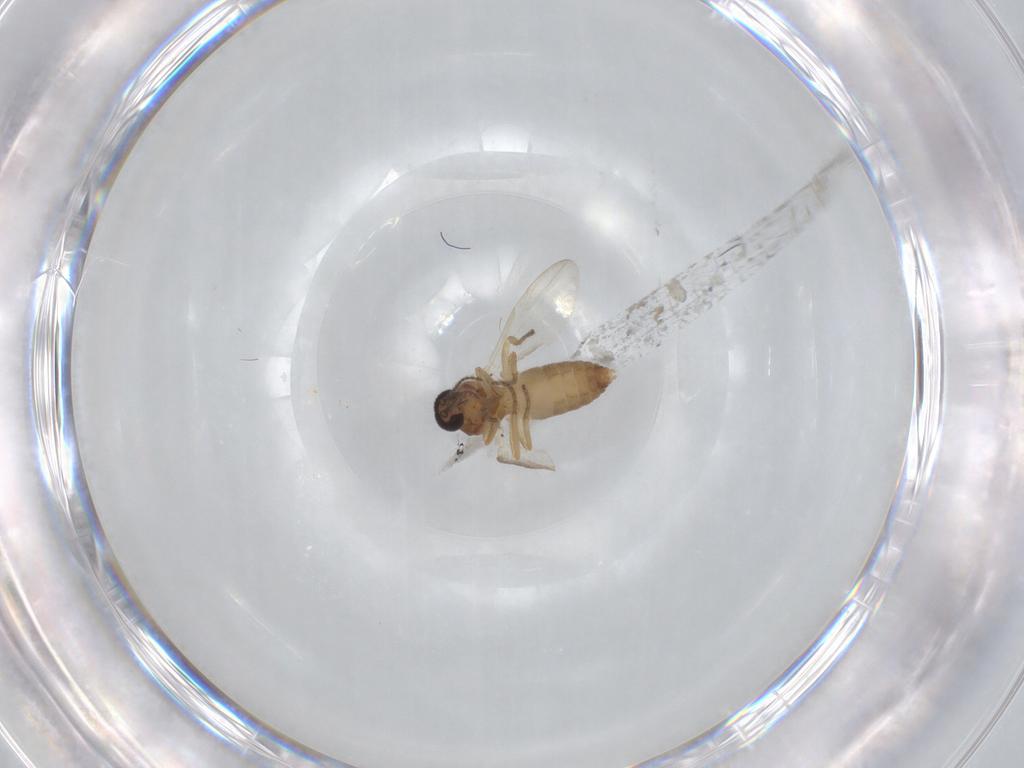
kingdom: Animalia
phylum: Arthropoda
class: Insecta
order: Diptera
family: Ceratopogonidae
